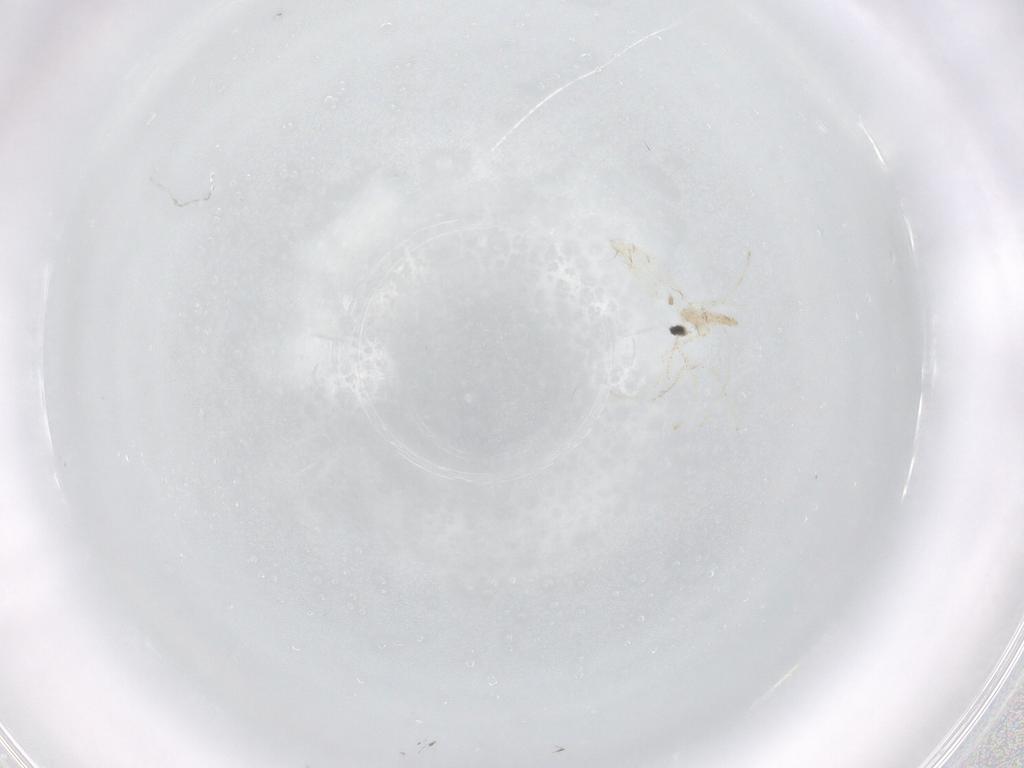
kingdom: Animalia
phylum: Arthropoda
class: Insecta
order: Diptera
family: Cecidomyiidae
